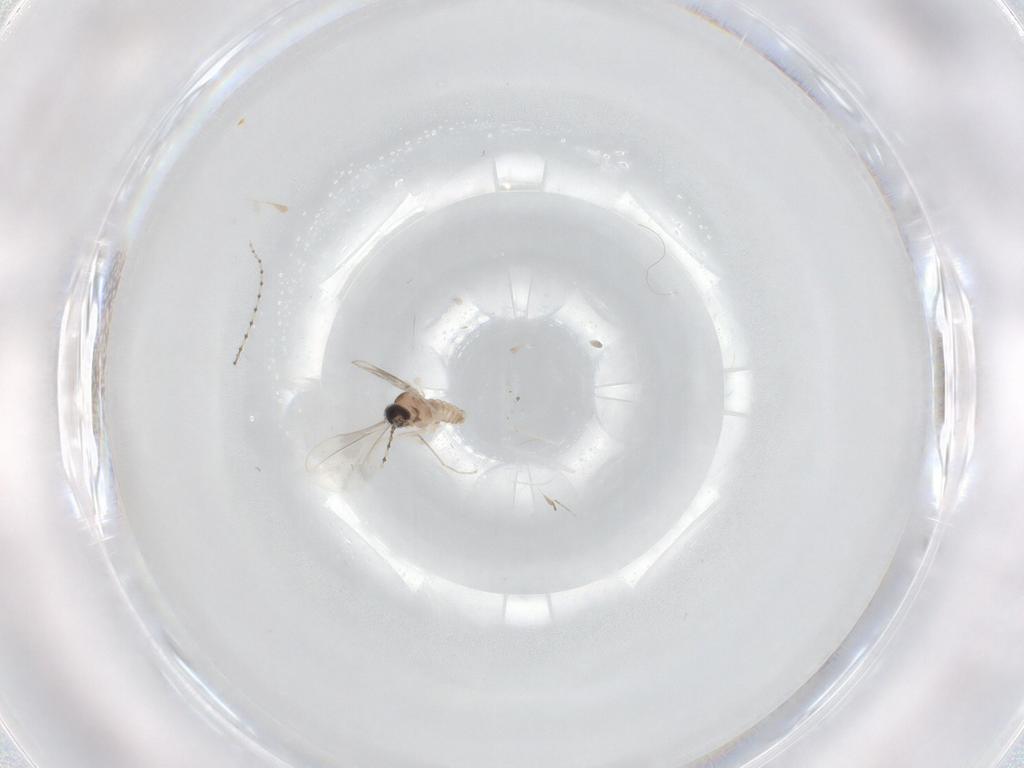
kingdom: Animalia
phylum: Arthropoda
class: Insecta
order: Diptera
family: Cecidomyiidae
